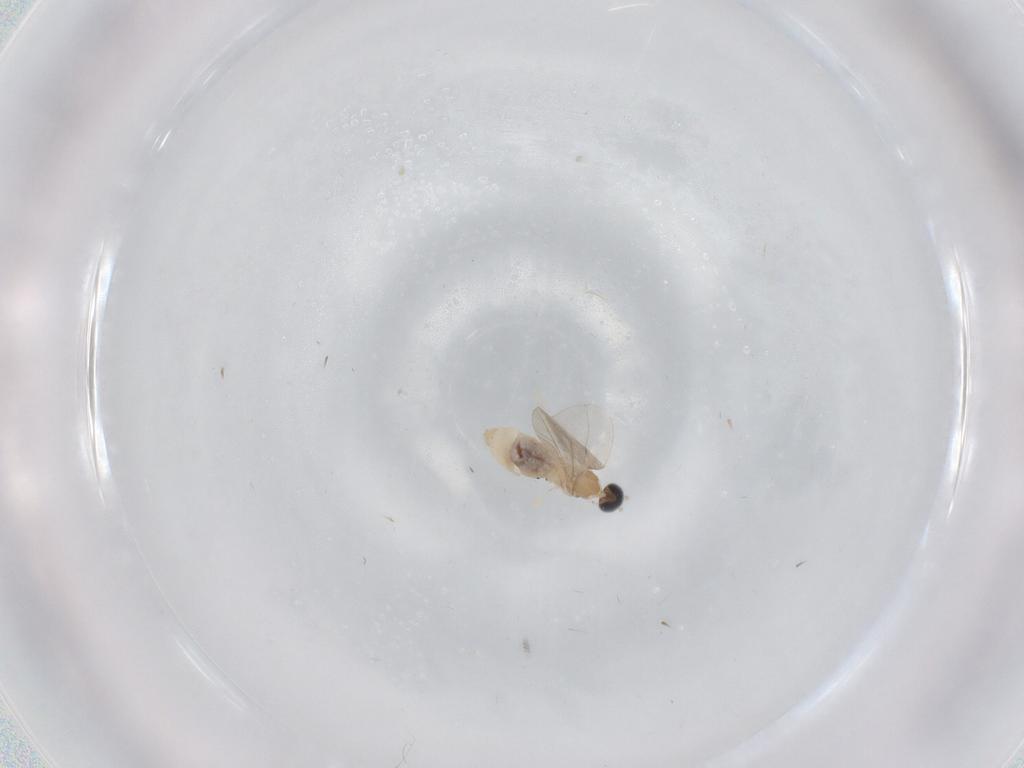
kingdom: Animalia
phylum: Arthropoda
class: Insecta
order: Diptera
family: Cecidomyiidae
